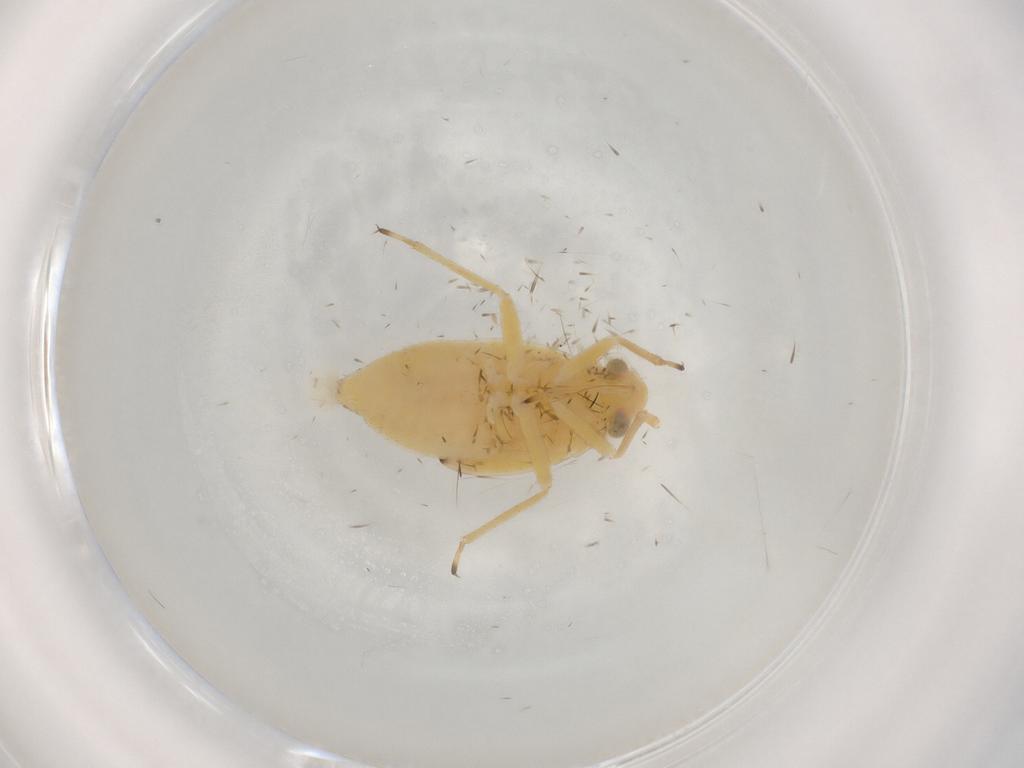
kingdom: Animalia
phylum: Arthropoda
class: Insecta
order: Hemiptera
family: Miridae
